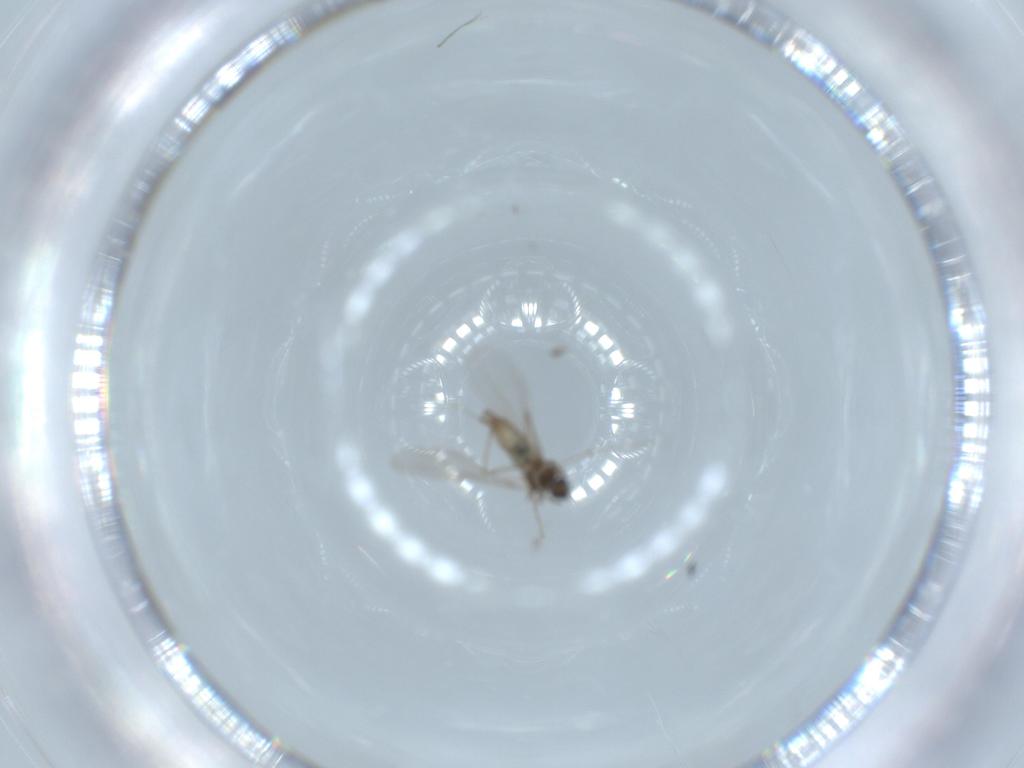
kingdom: Animalia
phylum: Arthropoda
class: Insecta
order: Diptera
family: Cecidomyiidae
